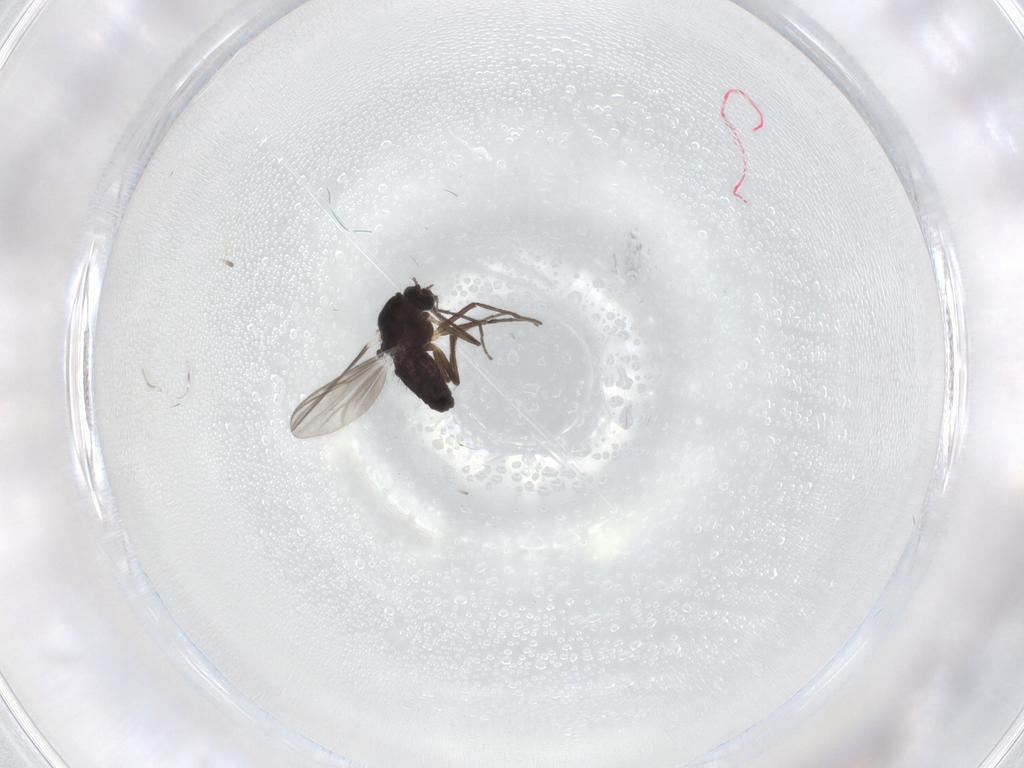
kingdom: Animalia
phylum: Arthropoda
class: Insecta
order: Diptera
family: Chironomidae
